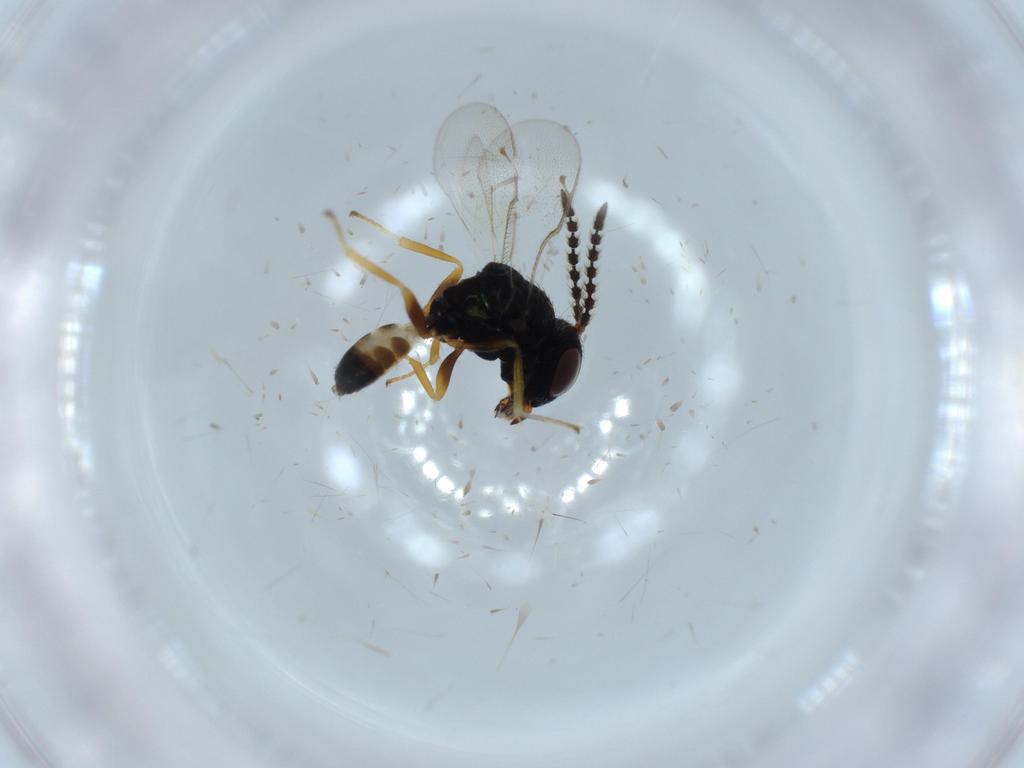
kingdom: Animalia
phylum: Arthropoda
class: Insecta
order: Hymenoptera
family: Pteromalidae
